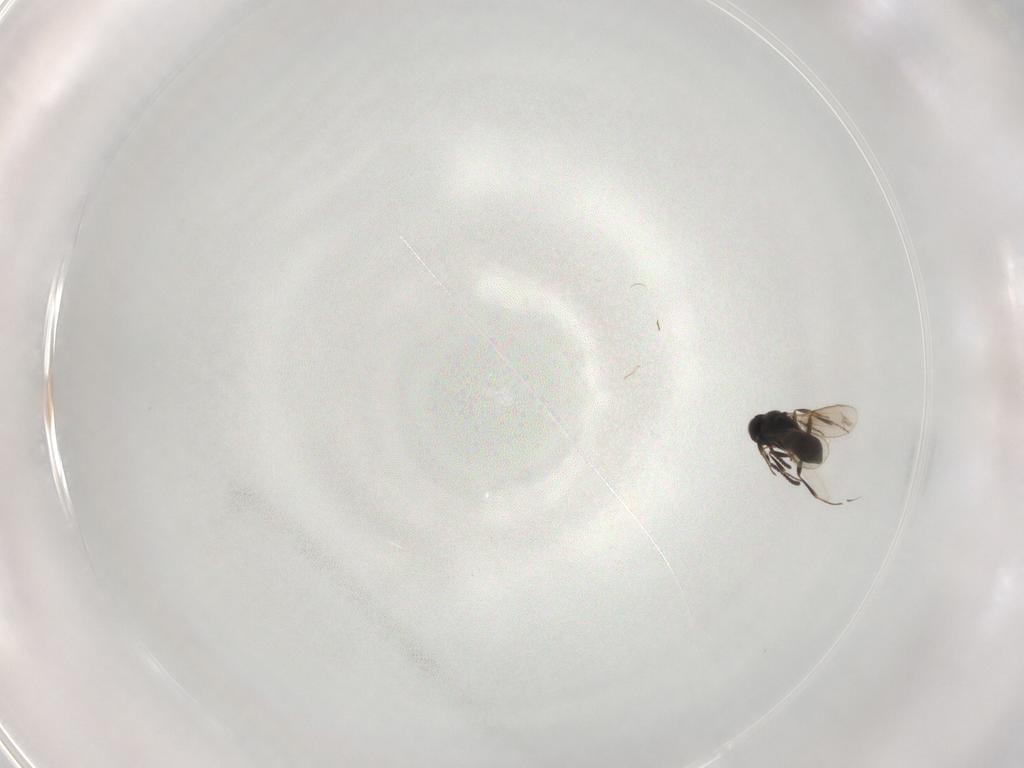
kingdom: Animalia
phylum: Arthropoda
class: Insecta
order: Hymenoptera
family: Scelionidae
